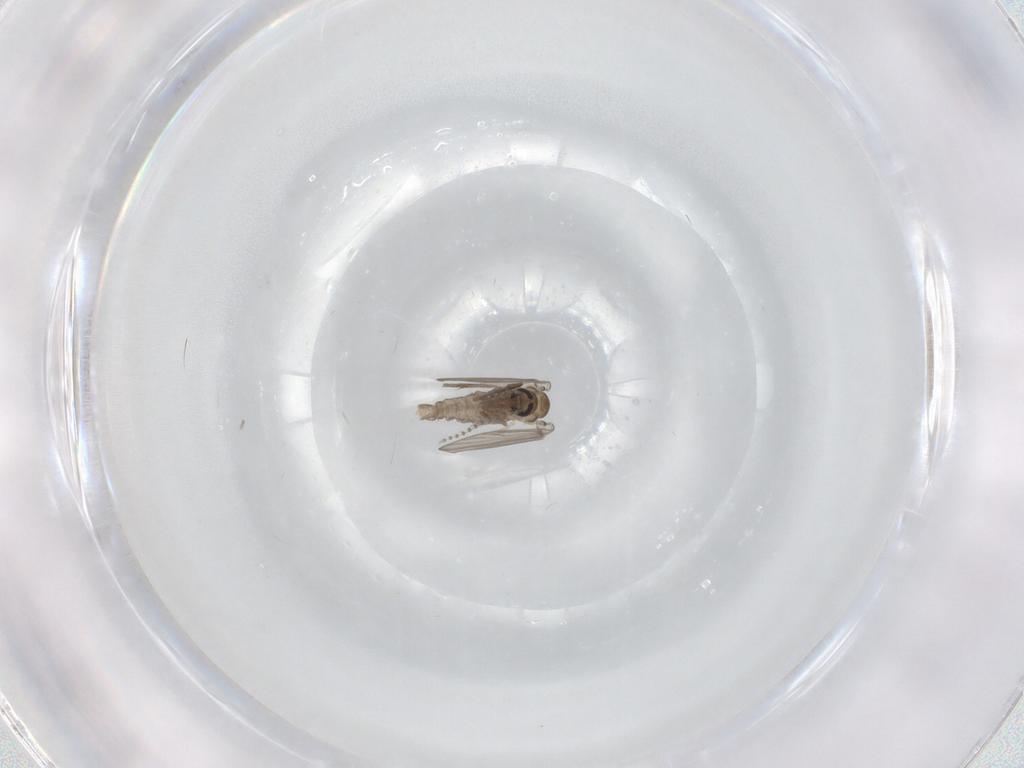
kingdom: Animalia
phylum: Arthropoda
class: Insecta
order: Diptera
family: Psychodidae
